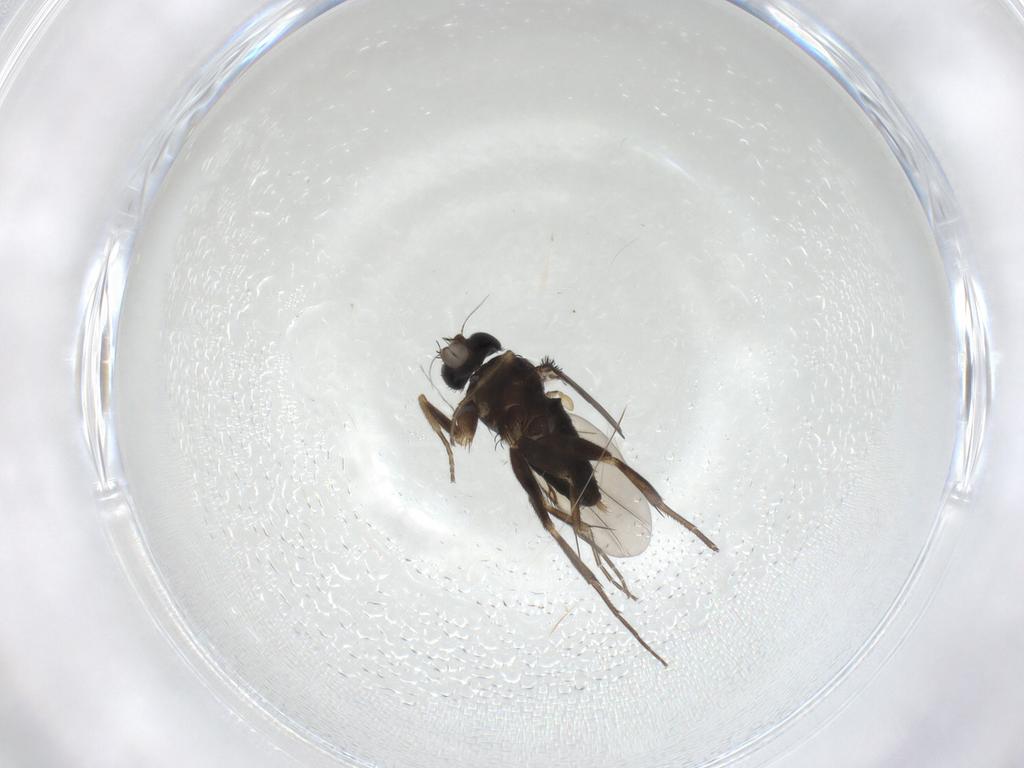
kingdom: Animalia
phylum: Arthropoda
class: Insecta
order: Diptera
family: Phoridae
